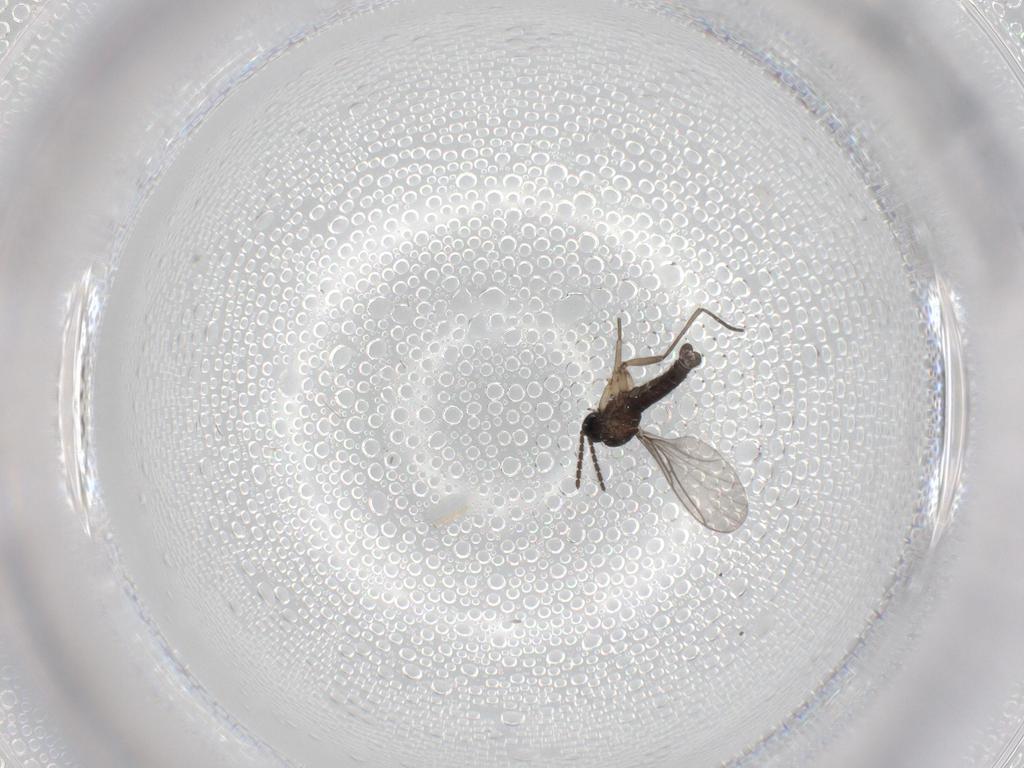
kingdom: Animalia
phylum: Arthropoda
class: Insecta
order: Diptera
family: Sciaridae
